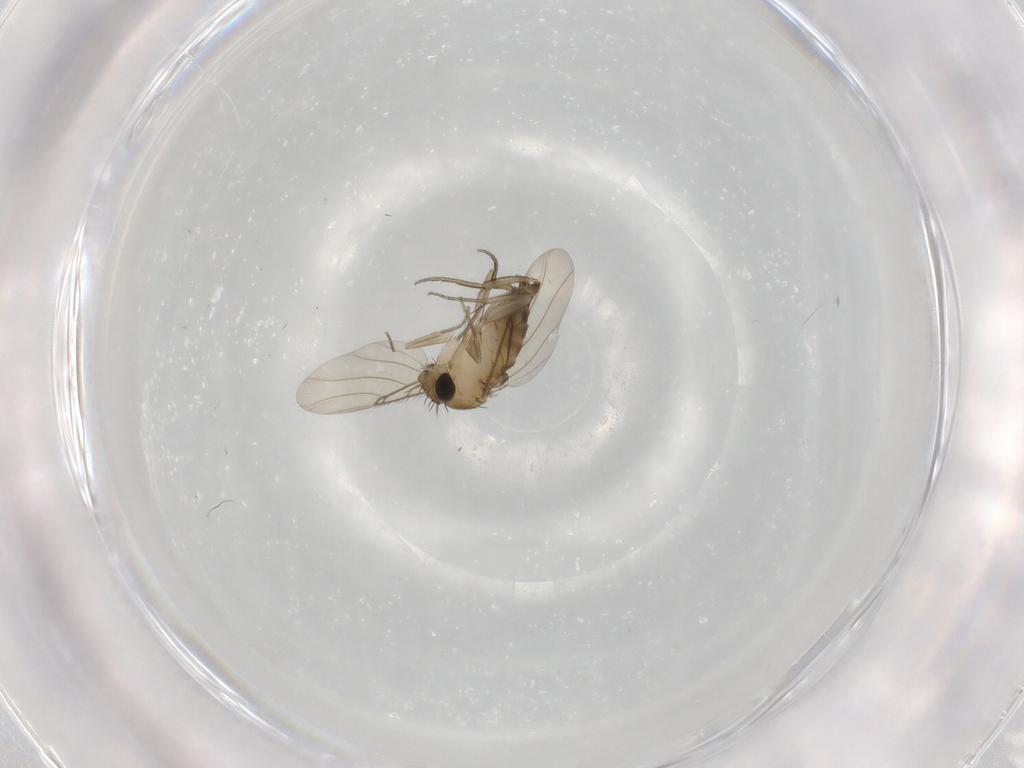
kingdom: Animalia
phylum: Arthropoda
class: Insecta
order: Diptera
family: Phoridae
